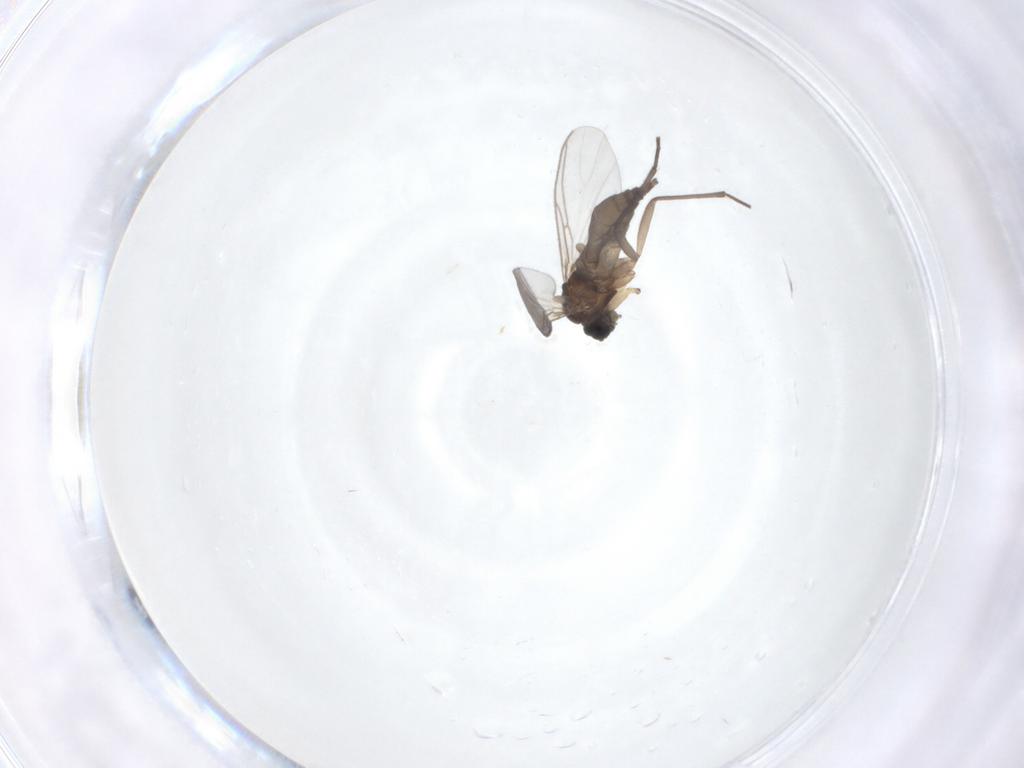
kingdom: Animalia
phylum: Arthropoda
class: Insecta
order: Diptera
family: Sciaridae
